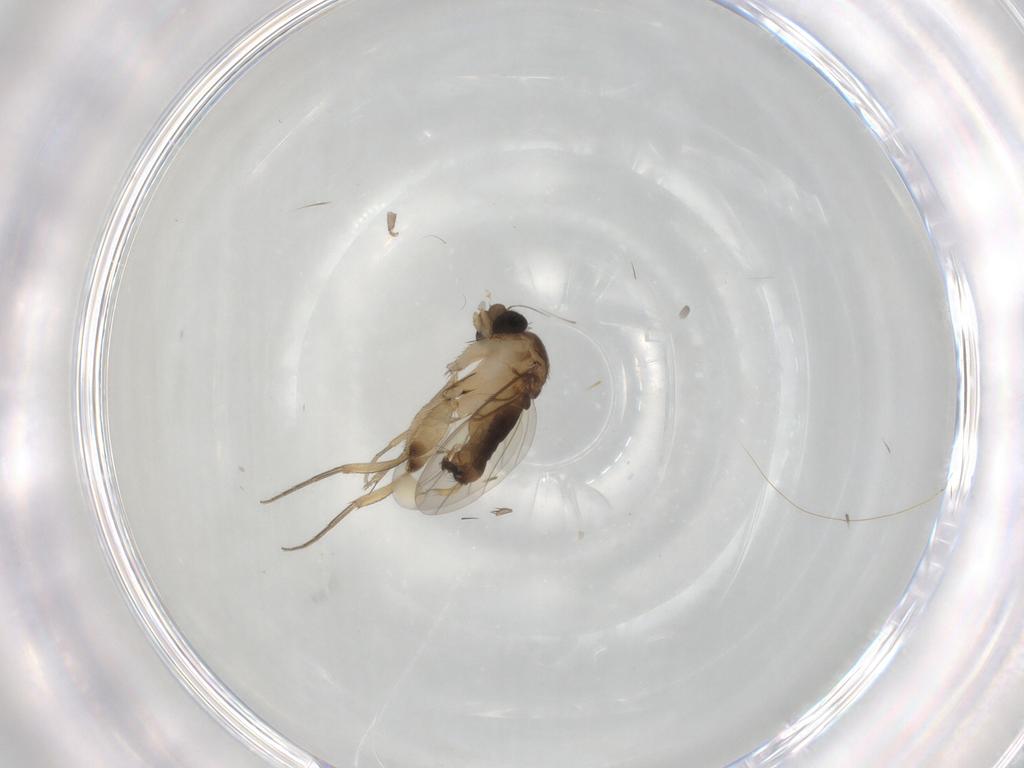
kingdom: Animalia
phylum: Arthropoda
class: Insecta
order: Diptera
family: Phoridae
